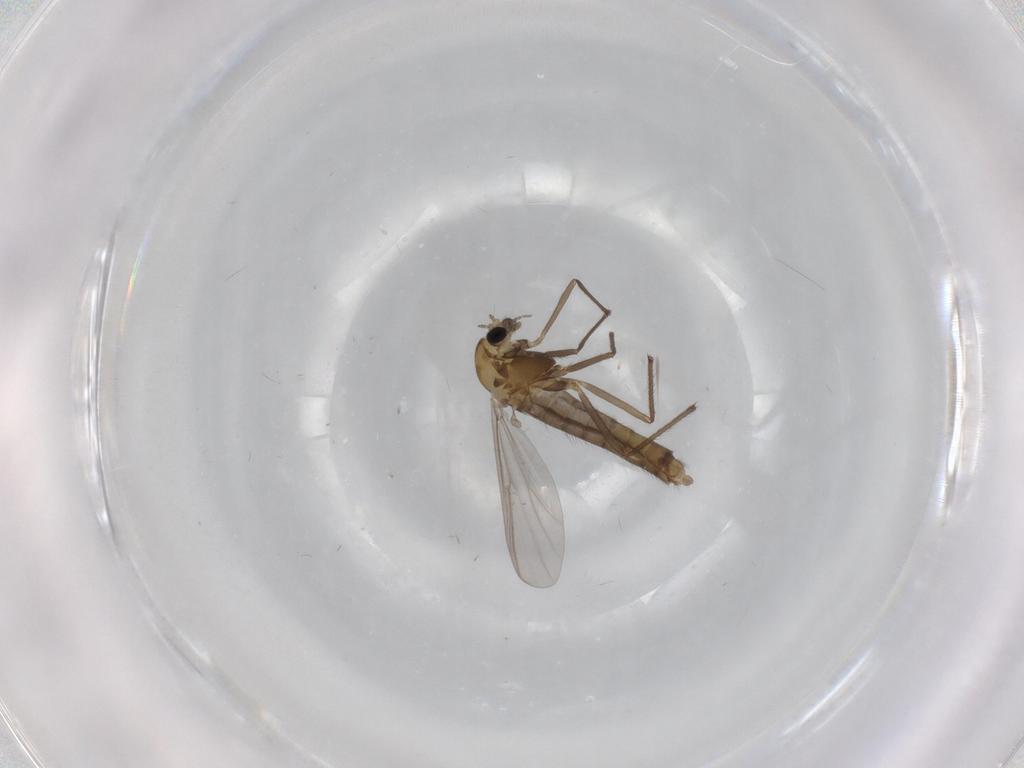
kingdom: Animalia
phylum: Arthropoda
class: Insecta
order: Diptera
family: Chironomidae
